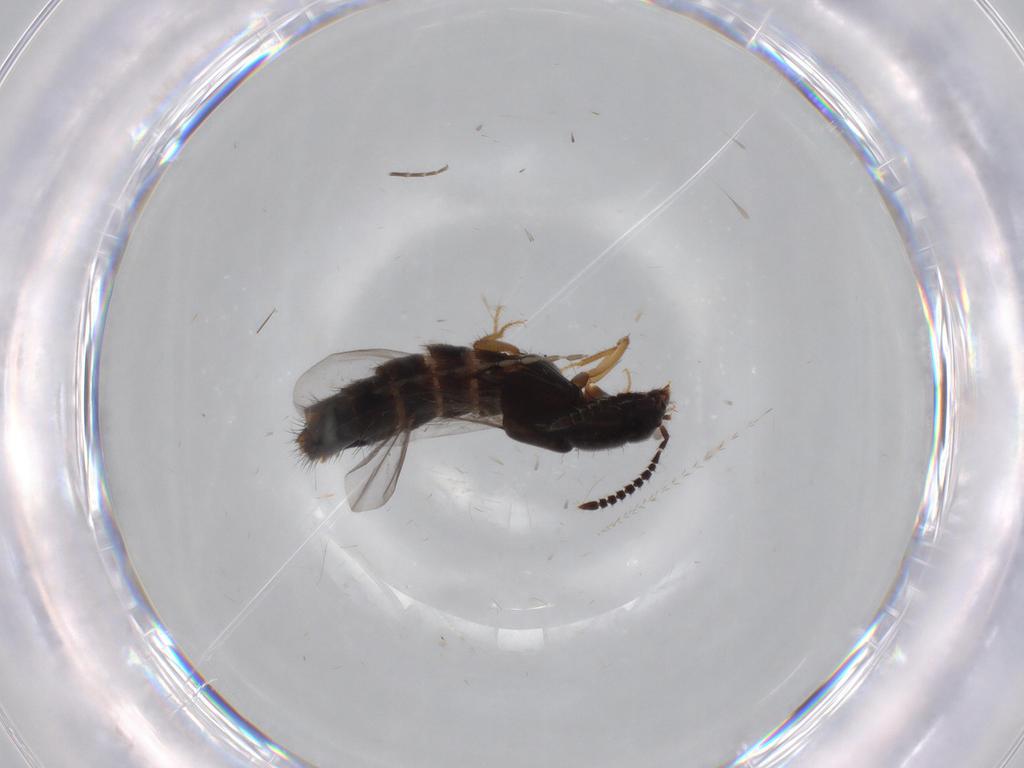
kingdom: Animalia
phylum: Arthropoda
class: Insecta
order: Coleoptera
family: Staphylinidae
